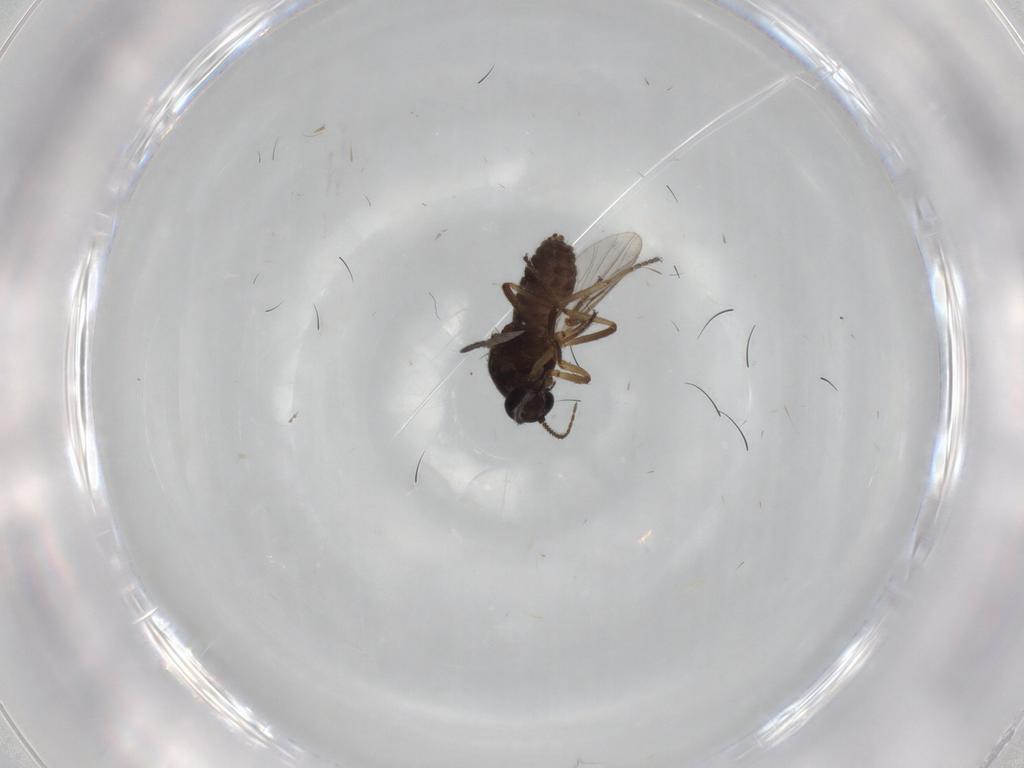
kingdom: Animalia
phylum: Arthropoda
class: Insecta
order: Diptera
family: Ceratopogonidae
